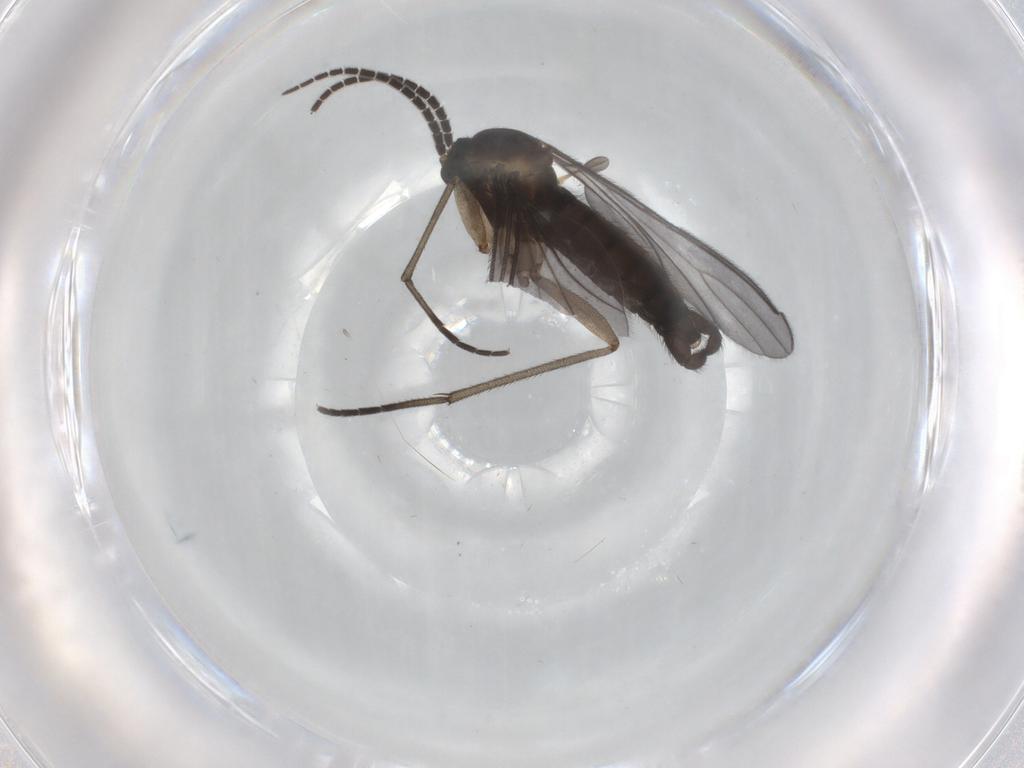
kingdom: Animalia
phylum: Arthropoda
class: Insecta
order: Diptera
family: Sciaridae
